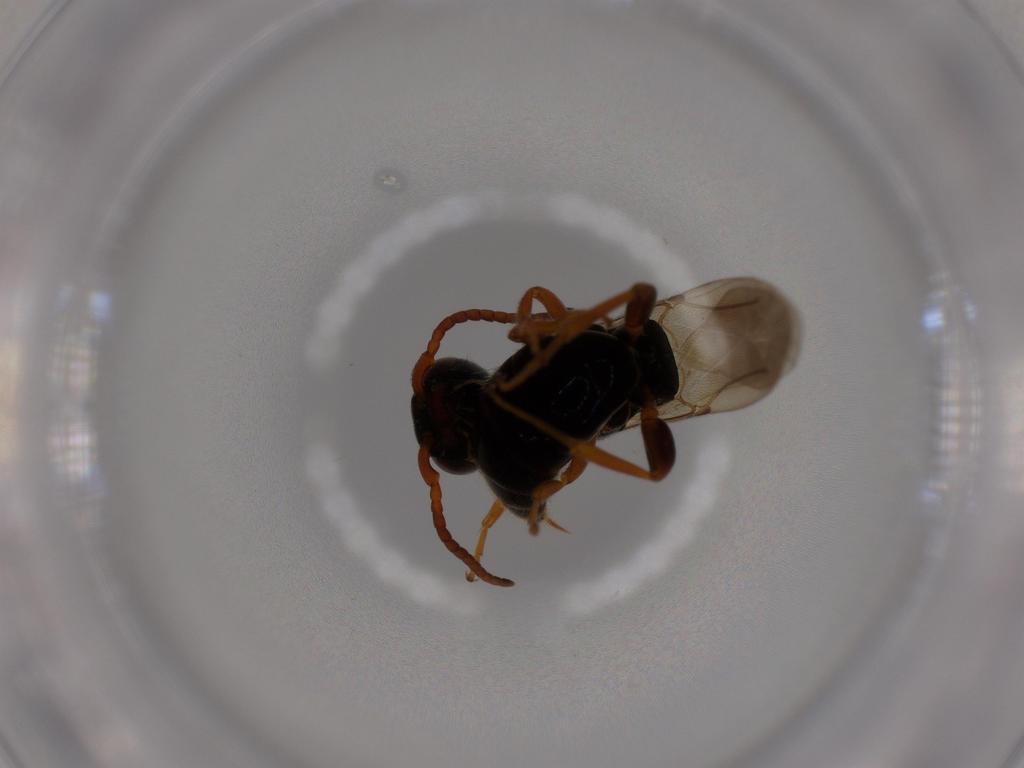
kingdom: Animalia
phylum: Arthropoda
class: Insecta
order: Hymenoptera
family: Bethylidae
